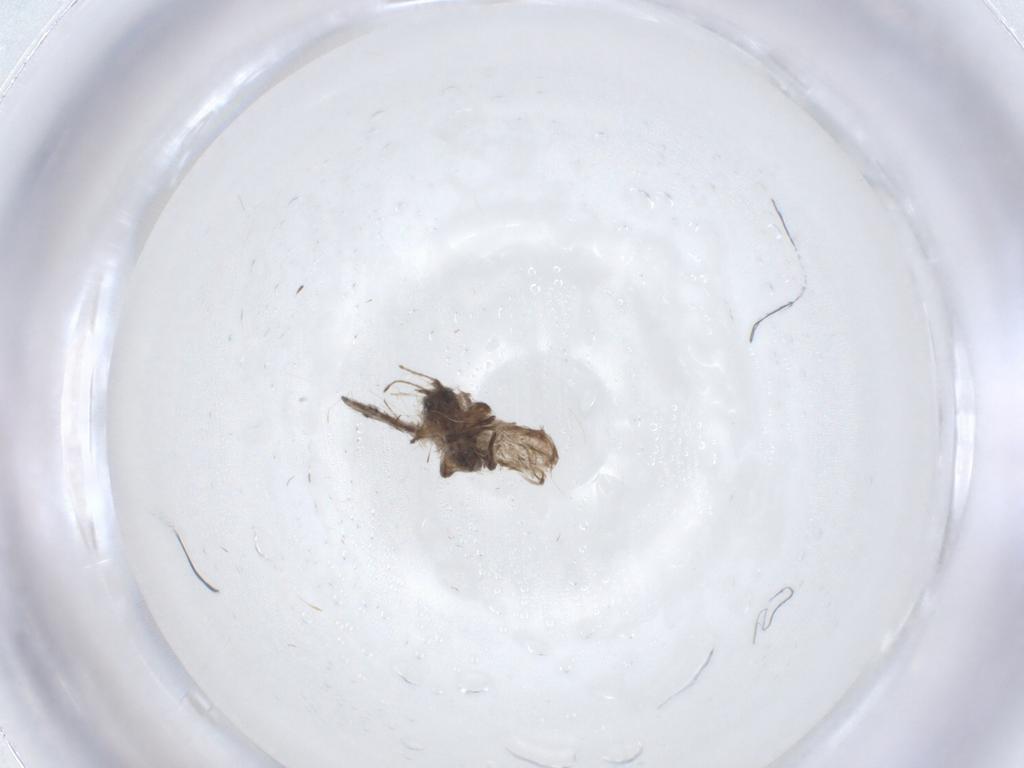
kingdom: Animalia
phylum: Arthropoda
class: Insecta
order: Diptera
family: Ceratopogonidae
